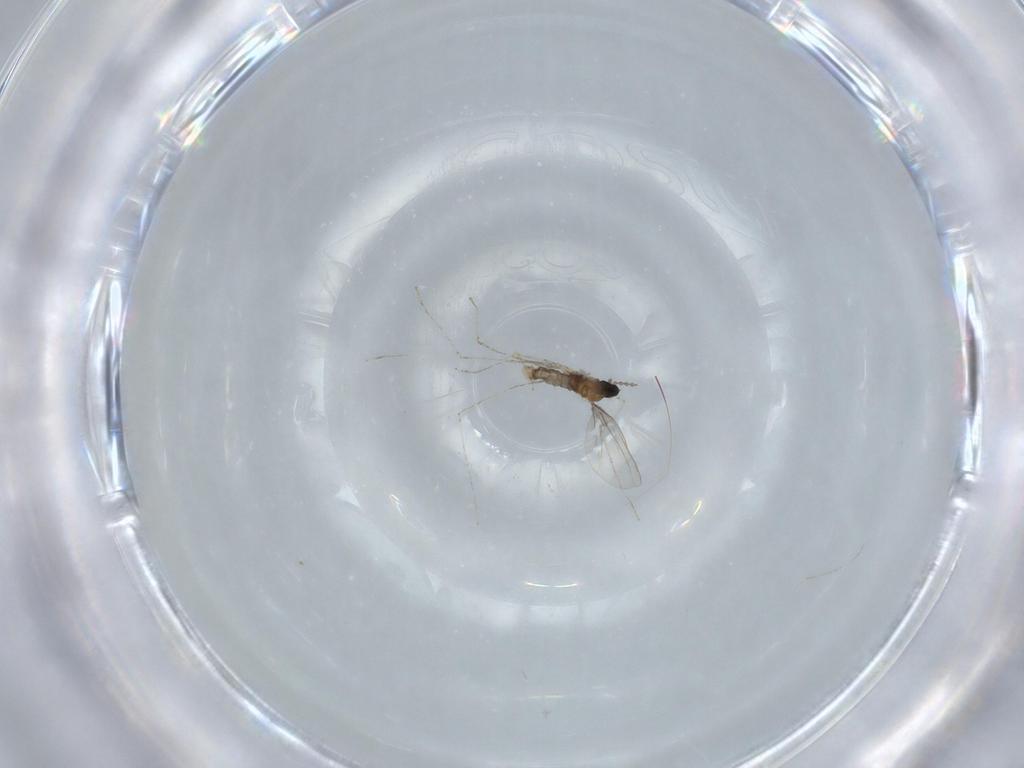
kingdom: Animalia
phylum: Arthropoda
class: Insecta
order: Diptera
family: Cecidomyiidae
